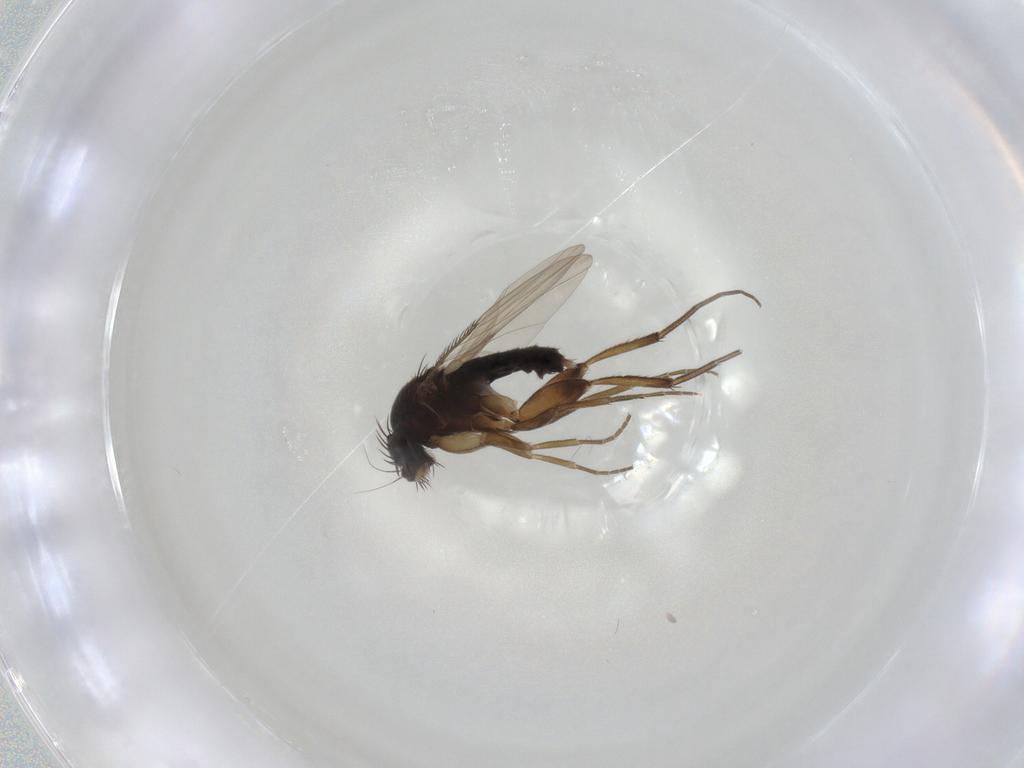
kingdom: Animalia
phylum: Arthropoda
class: Insecta
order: Diptera
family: Phoridae
